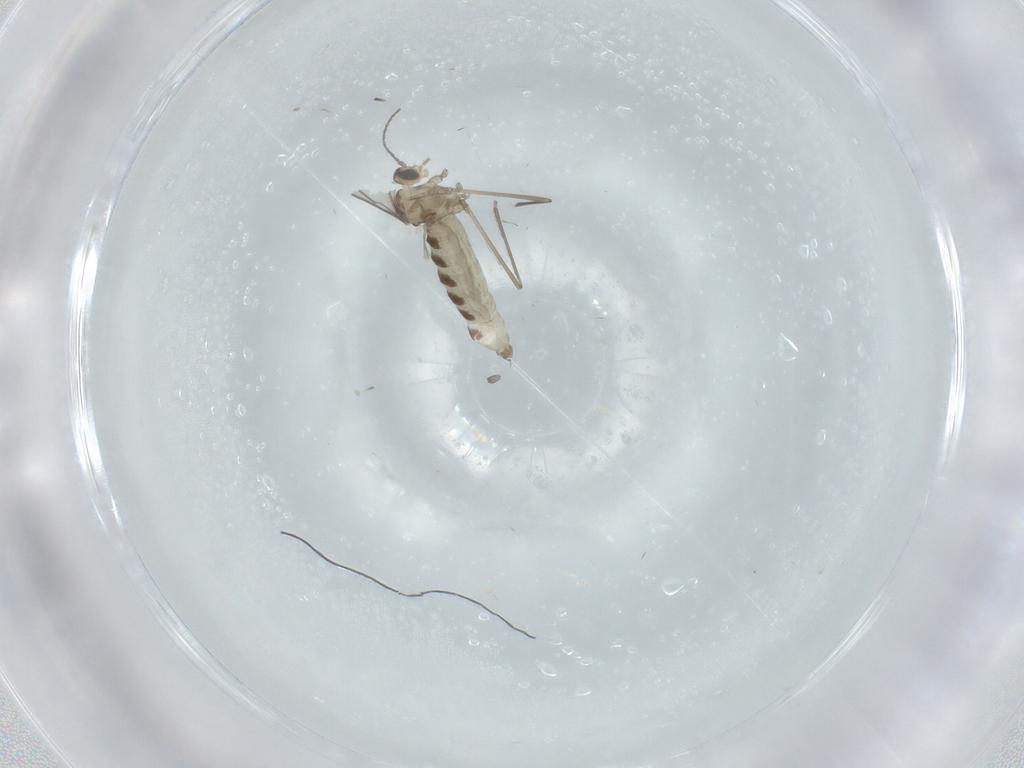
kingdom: Animalia
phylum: Arthropoda
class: Insecta
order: Diptera
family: Cecidomyiidae
